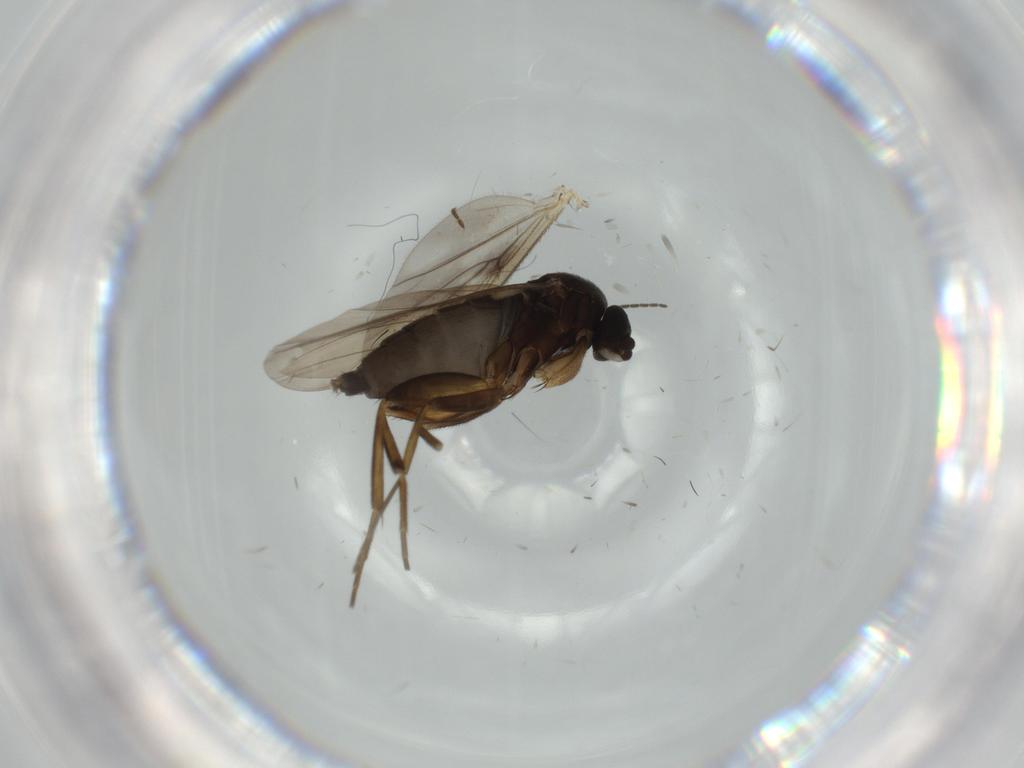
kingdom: Animalia
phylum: Arthropoda
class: Insecta
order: Diptera
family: Phoridae
